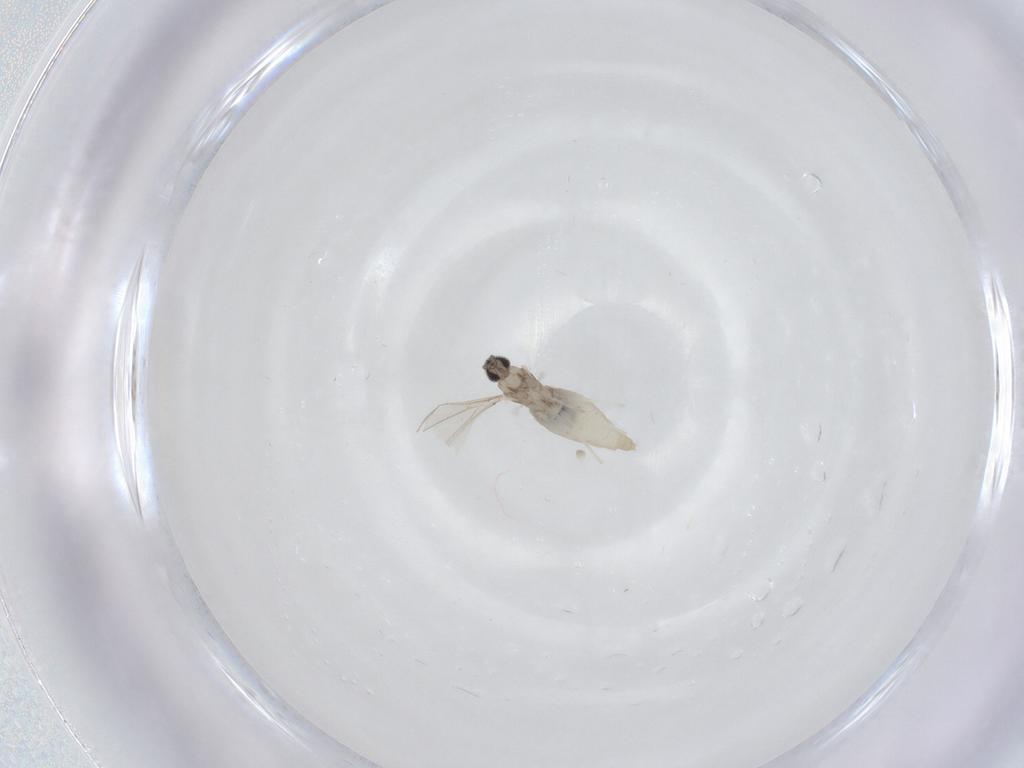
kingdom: Animalia
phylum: Arthropoda
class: Insecta
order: Diptera
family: Cecidomyiidae
